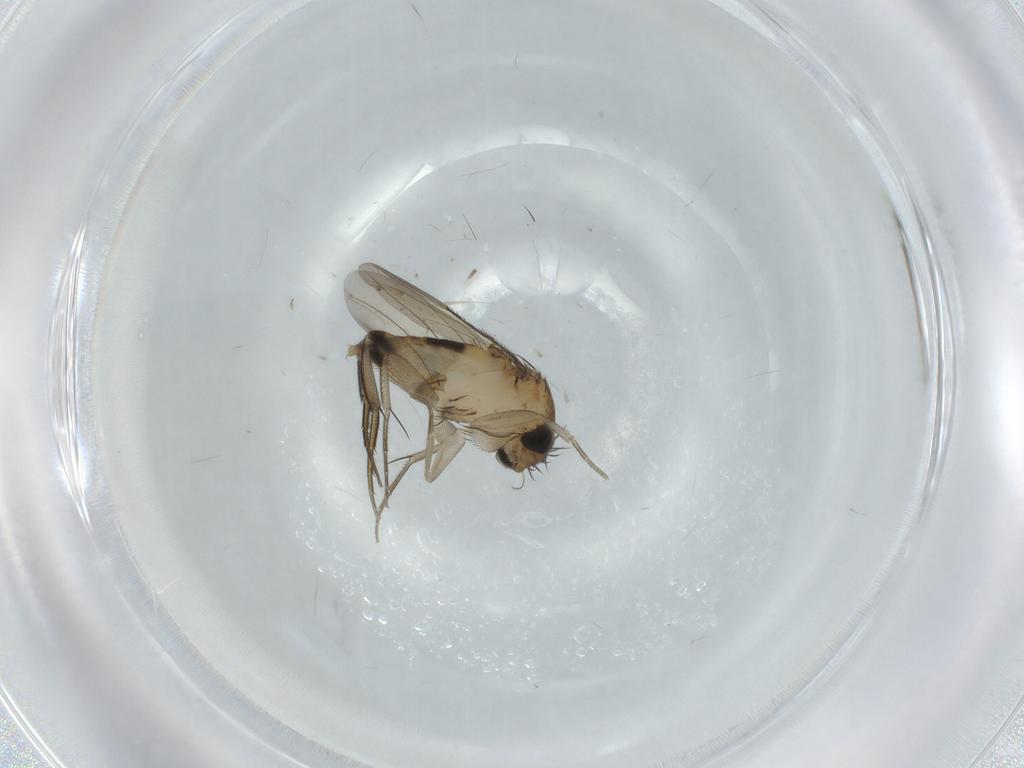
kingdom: Animalia
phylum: Arthropoda
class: Insecta
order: Diptera
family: Phoridae
